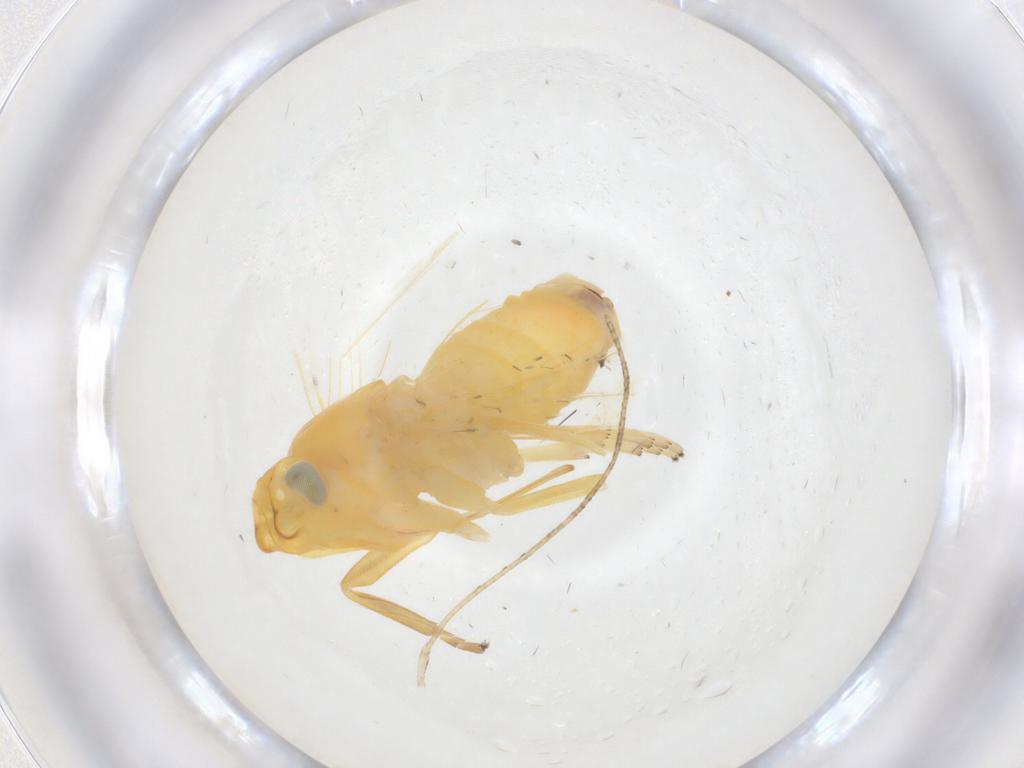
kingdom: Animalia
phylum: Arthropoda
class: Insecta
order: Hemiptera
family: Cixiidae
